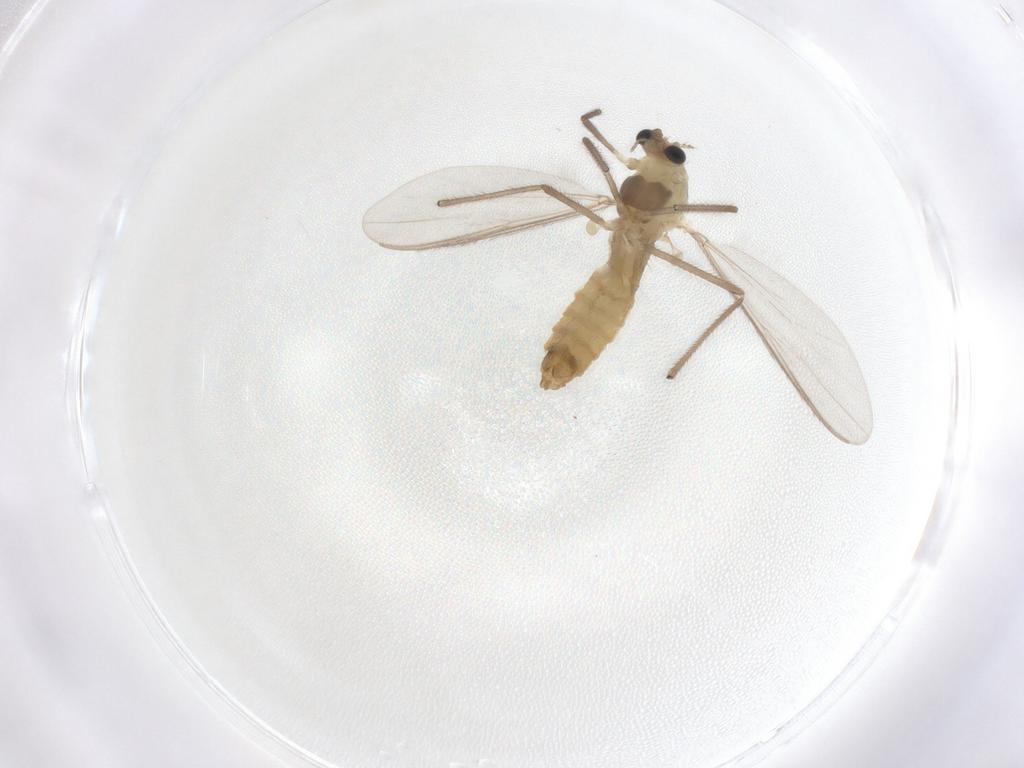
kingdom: Animalia
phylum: Arthropoda
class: Insecta
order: Diptera
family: Chironomidae
